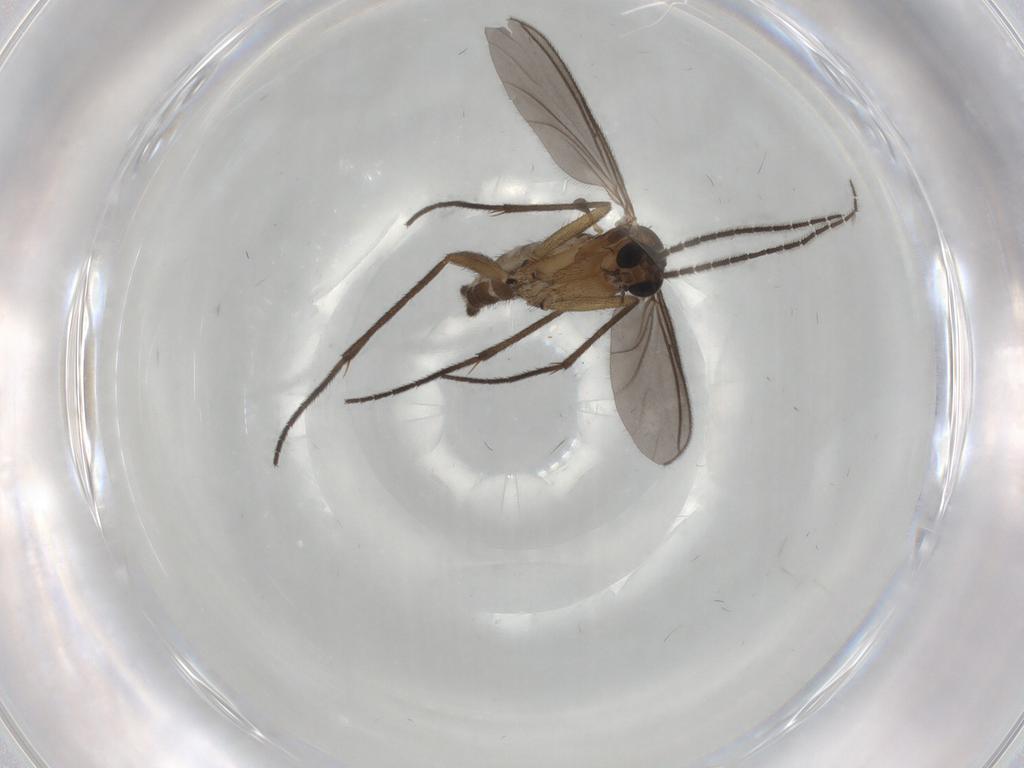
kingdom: Animalia
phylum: Arthropoda
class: Insecta
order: Diptera
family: Sciaridae
